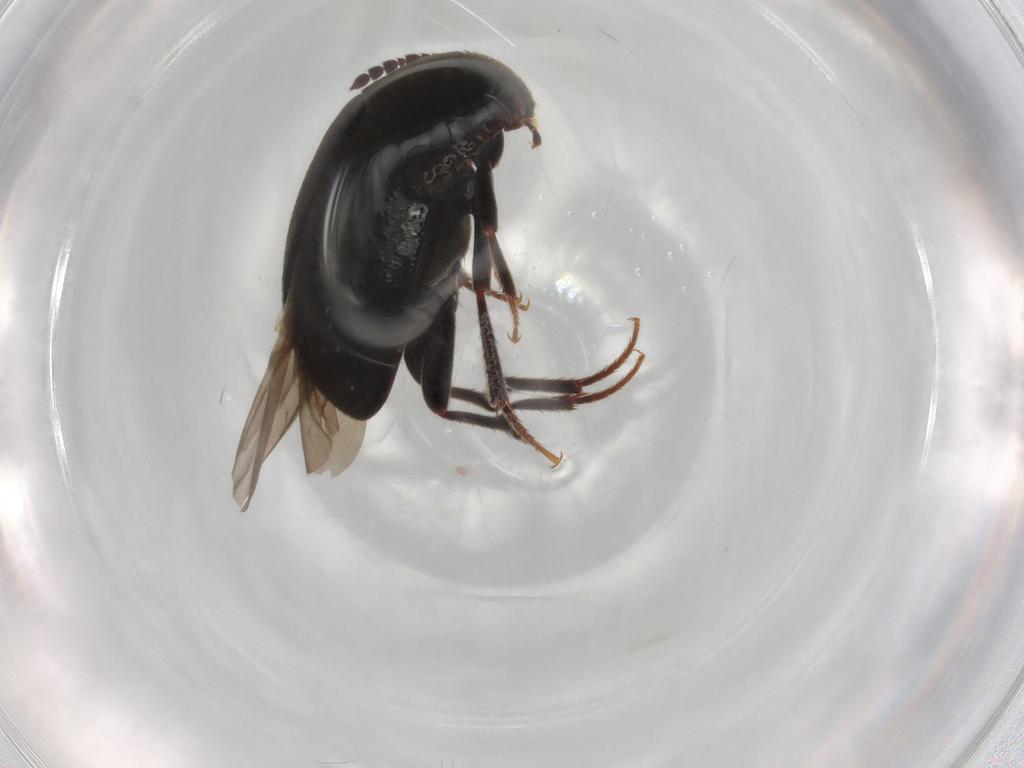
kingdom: Animalia
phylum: Arthropoda
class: Insecta
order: Coleoptera
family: Leiodidae
